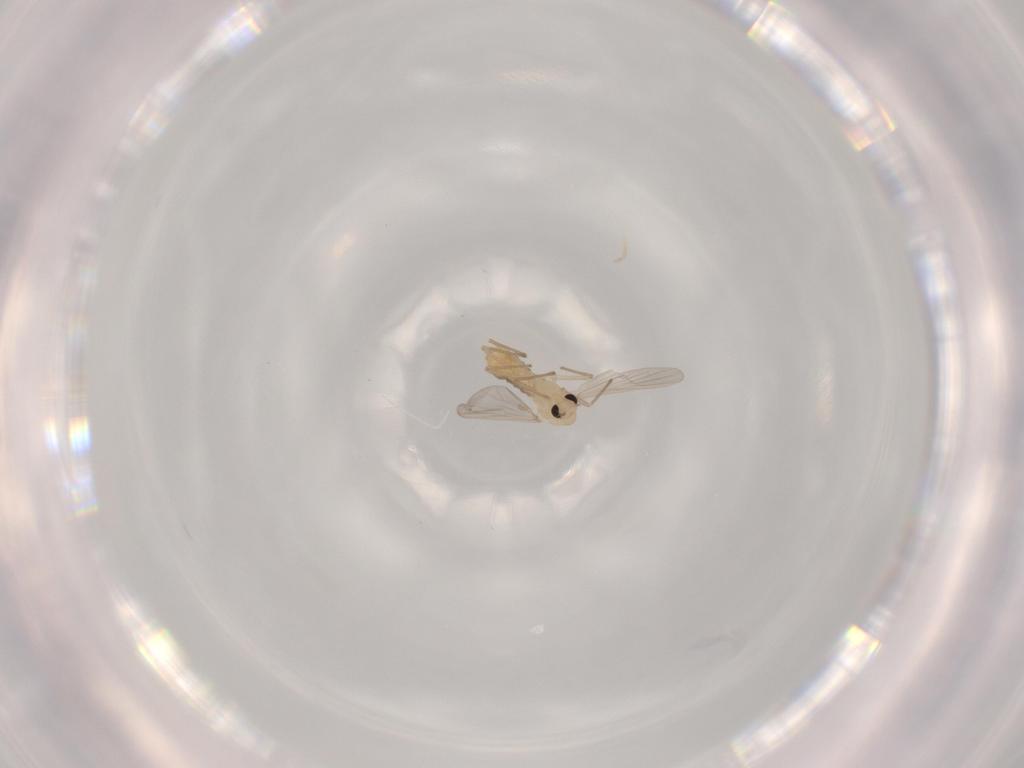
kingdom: Animalia
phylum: Arthropoda
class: Insecta
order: Diptera
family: Chironomidae
